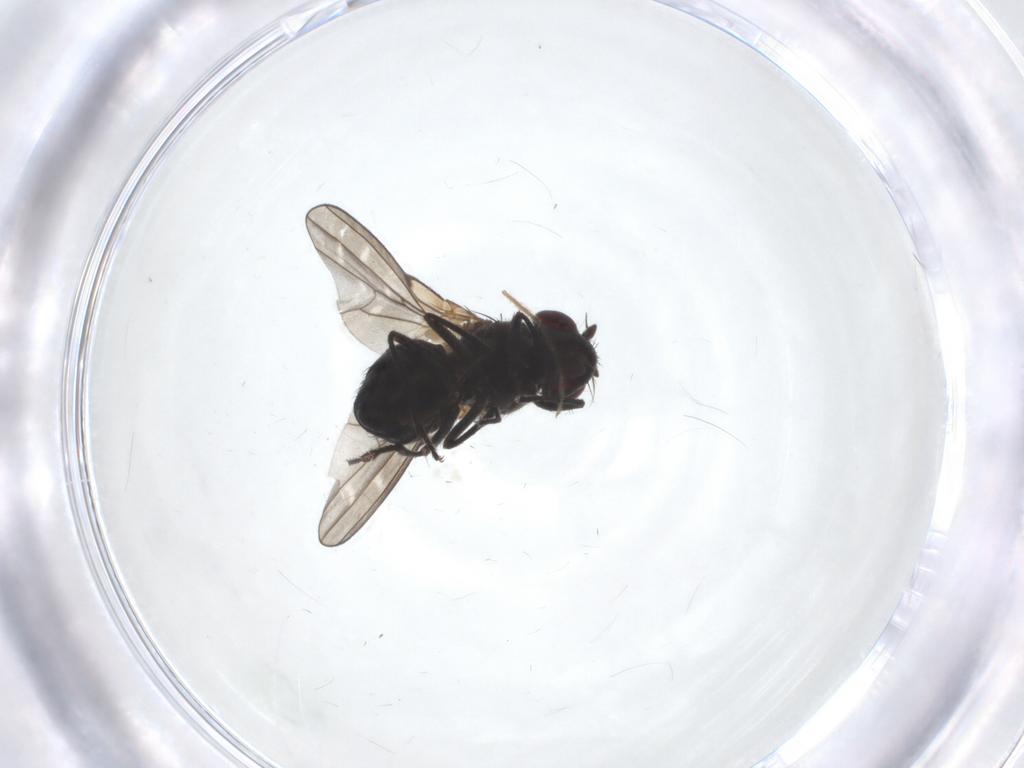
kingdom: Animalia
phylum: Arthropoda
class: Insecta
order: Diptera
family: Ephydridae
